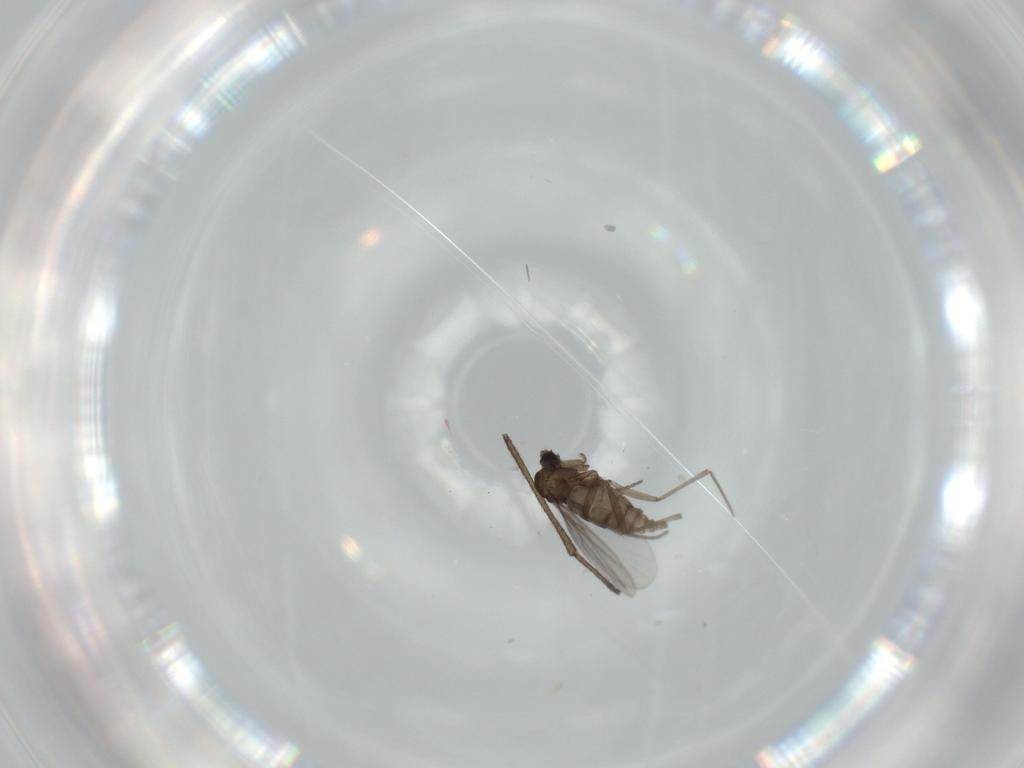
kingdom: Animalia
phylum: Arthropoda
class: Insecta
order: Diptera
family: Sciaridae
